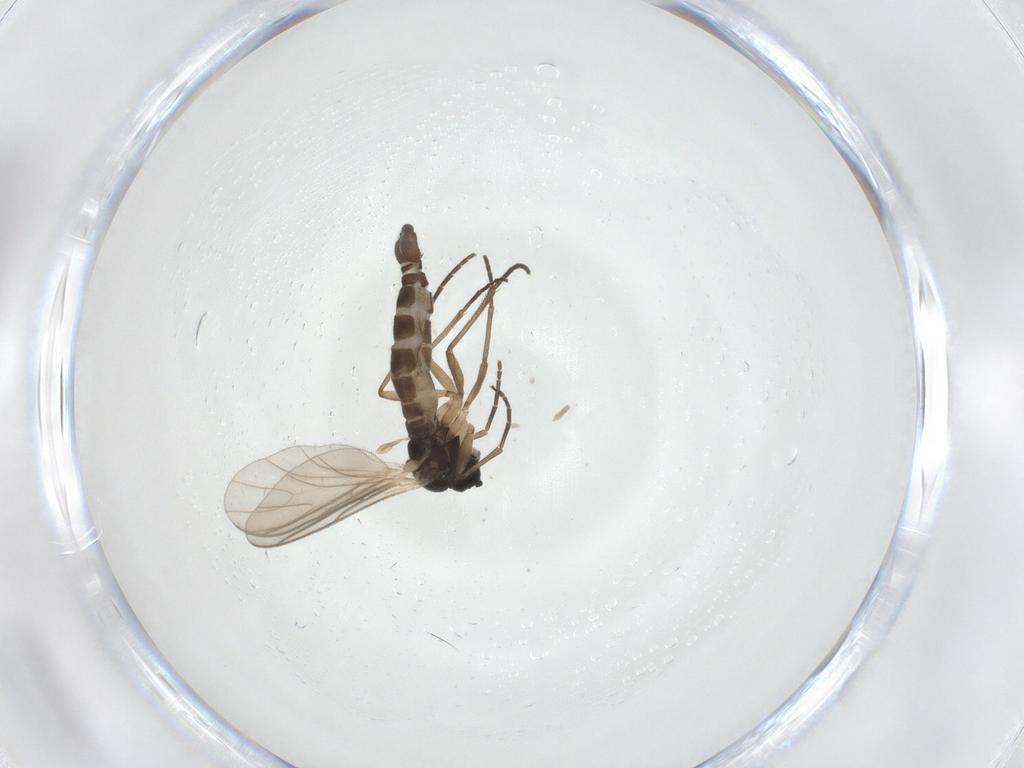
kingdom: Animalia
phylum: Arthropoda
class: Insecta
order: Diptera
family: Sciaridae
